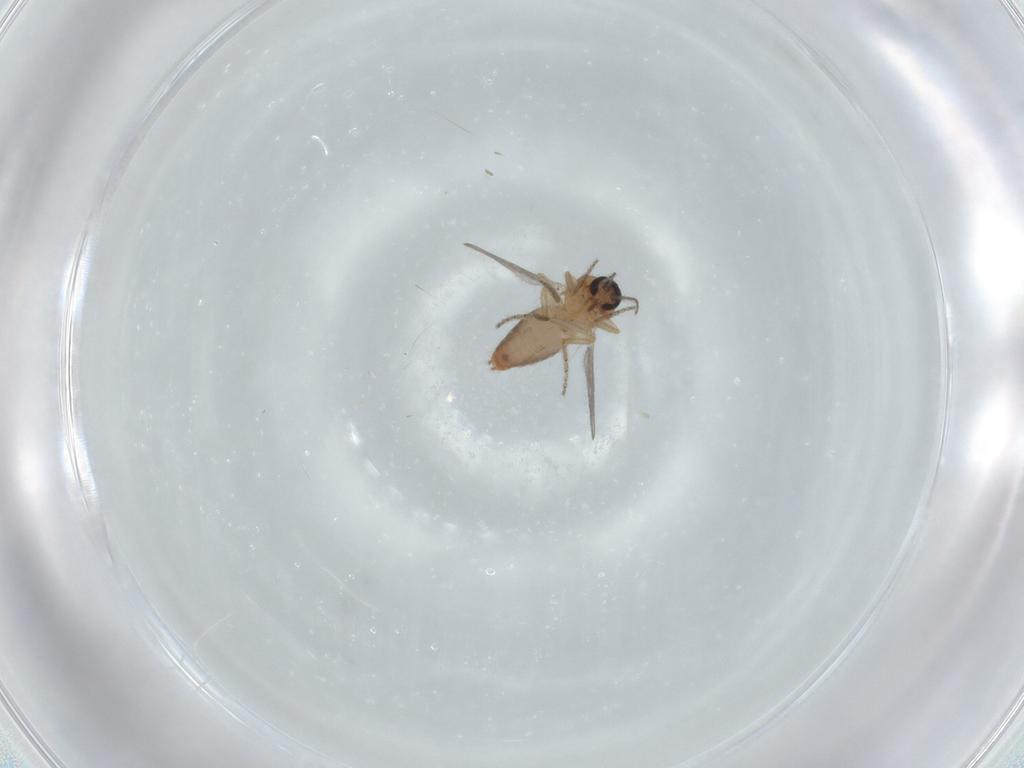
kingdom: Animalia
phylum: Arthropoda
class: Insecta
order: Diptera
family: Ceratopogonidae
